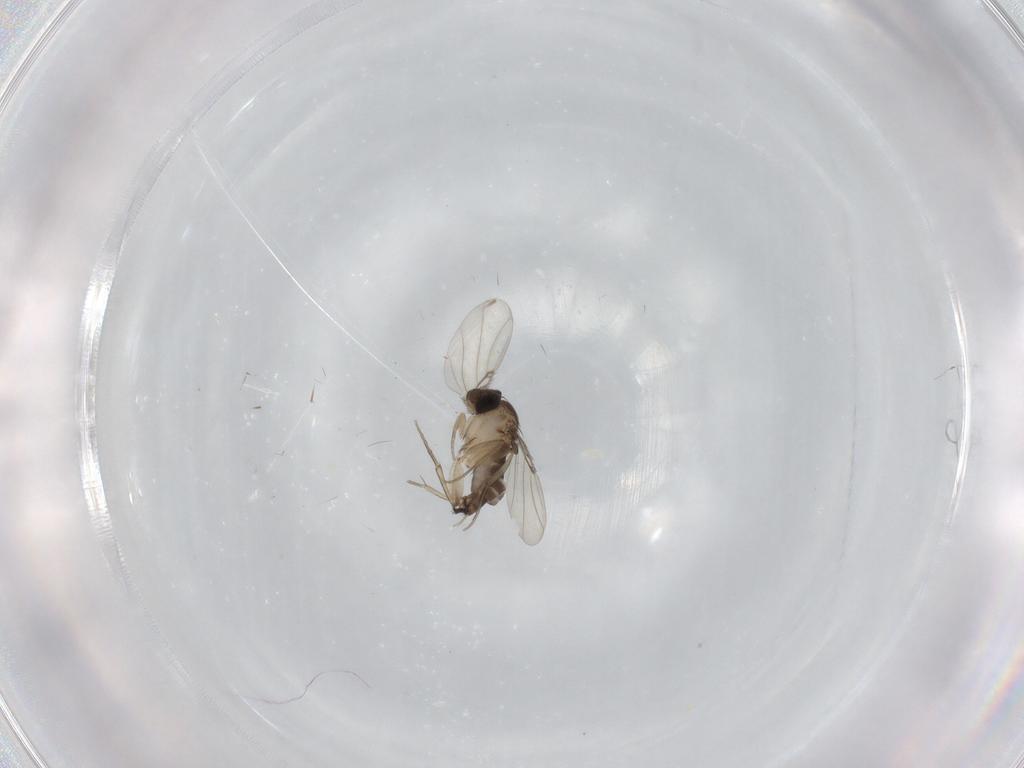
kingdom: Animalia
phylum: Arthropoda
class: Insecta
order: Diptera
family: Phoridae
